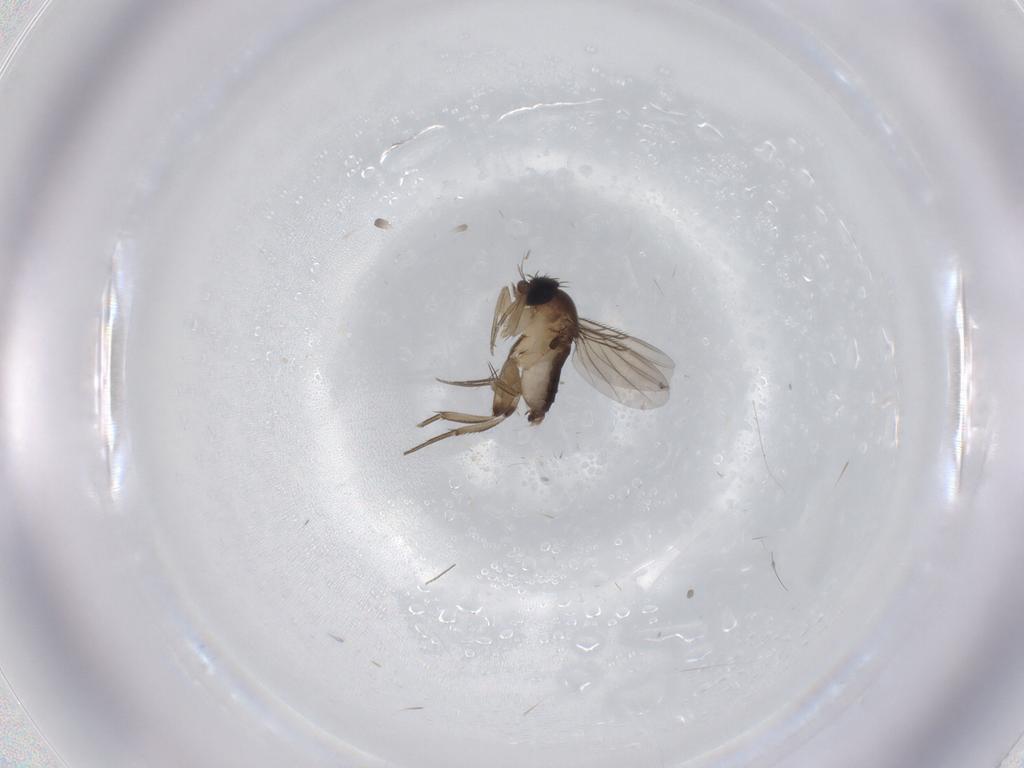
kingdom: Animalia
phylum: Arthropoda
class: Insecta
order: Diptera
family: Phoridae
